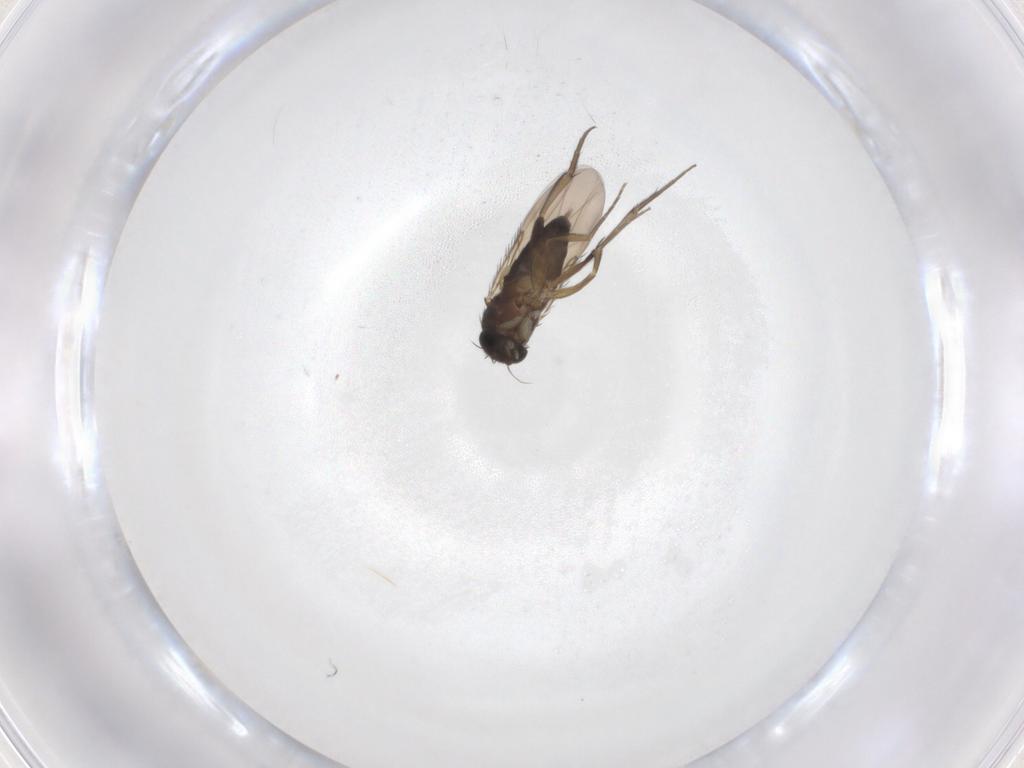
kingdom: Animalia
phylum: Arthropoda
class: Insecta
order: Diptera
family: Phoridae
